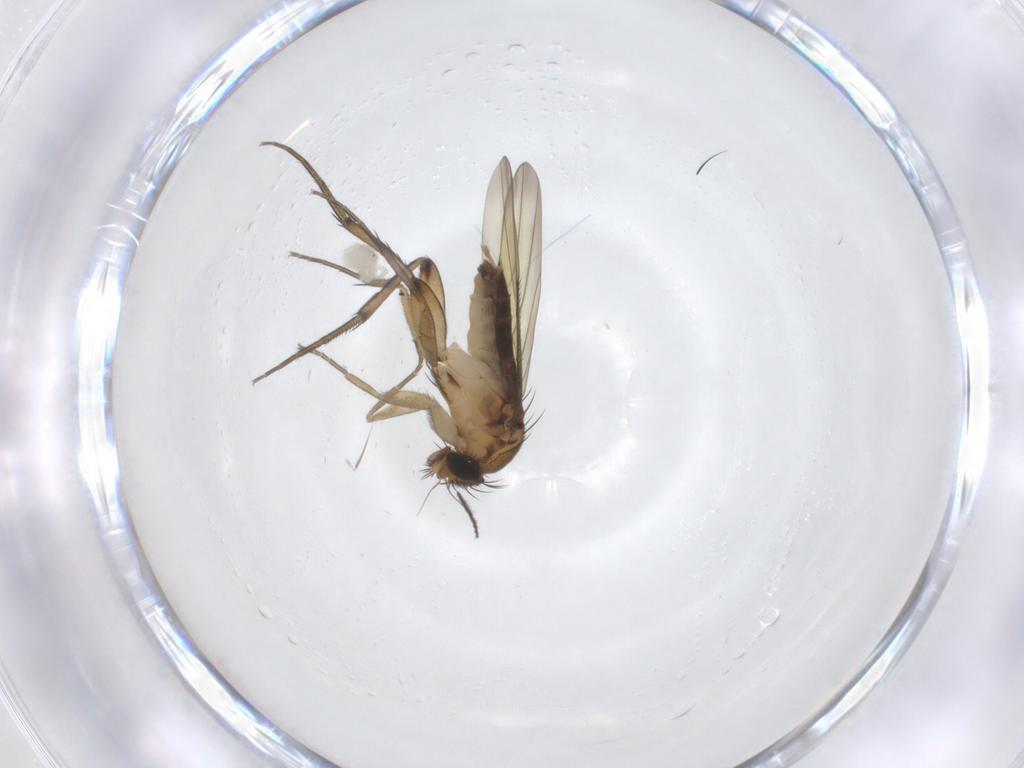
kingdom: Animalia
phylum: Arthropoda
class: Insecta
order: Diptera
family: Phoridae
